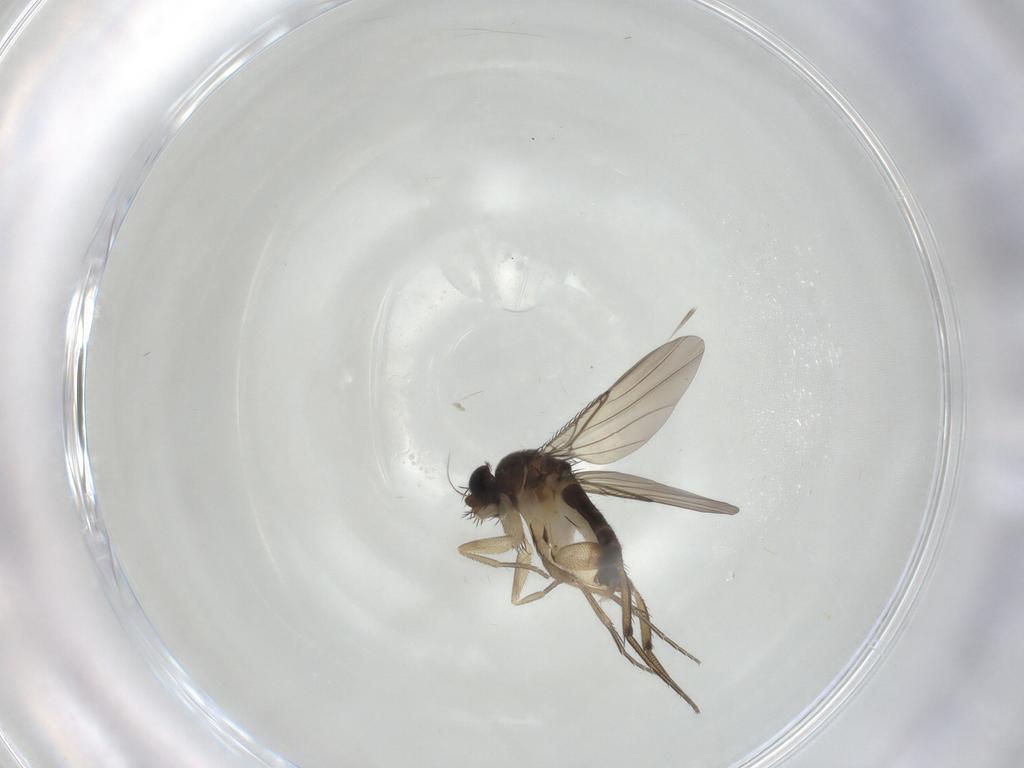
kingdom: Animalia
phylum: Arthropoda
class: Insecta
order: Diptera
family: Phoridae
